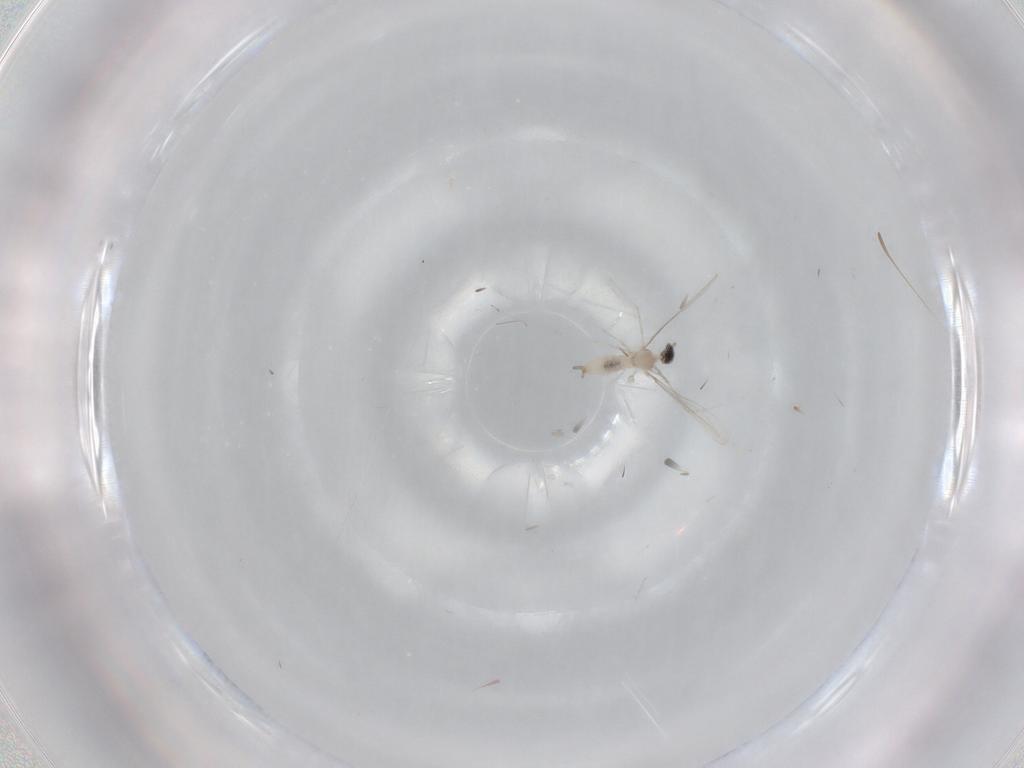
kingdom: Animalia
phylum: Arthropoda
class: Insecta
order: Diptera
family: Cecidomyiidae
